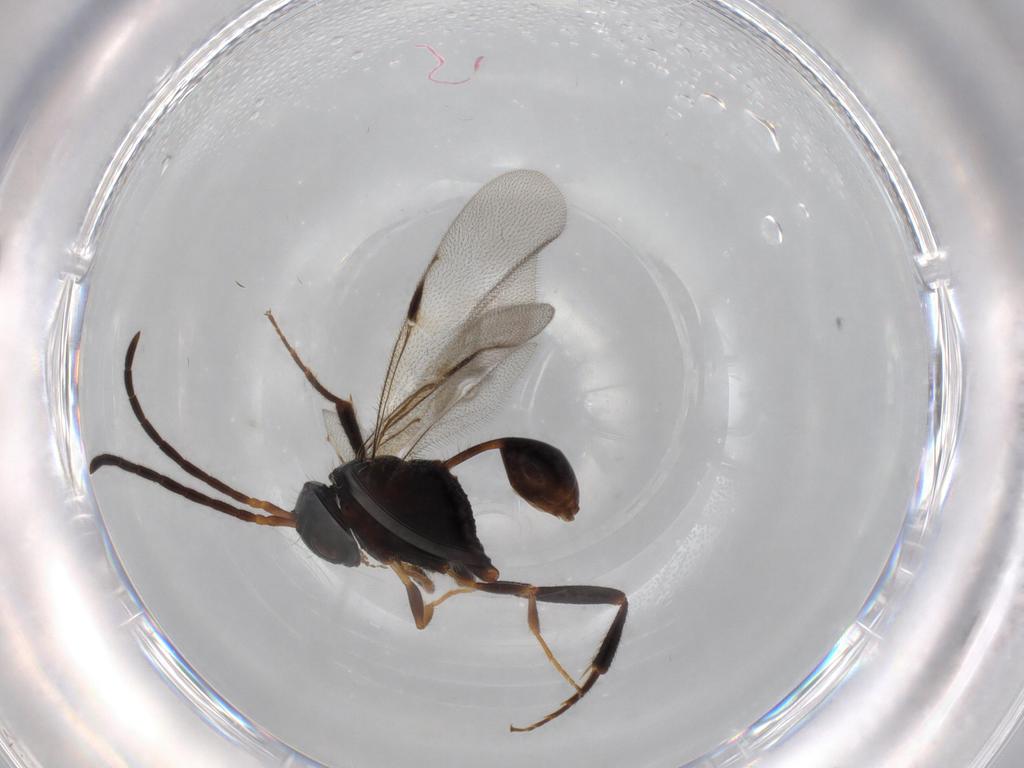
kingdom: Animalia
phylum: Arthropoda
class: Insecta
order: Hymenoptera
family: Evaniidae
